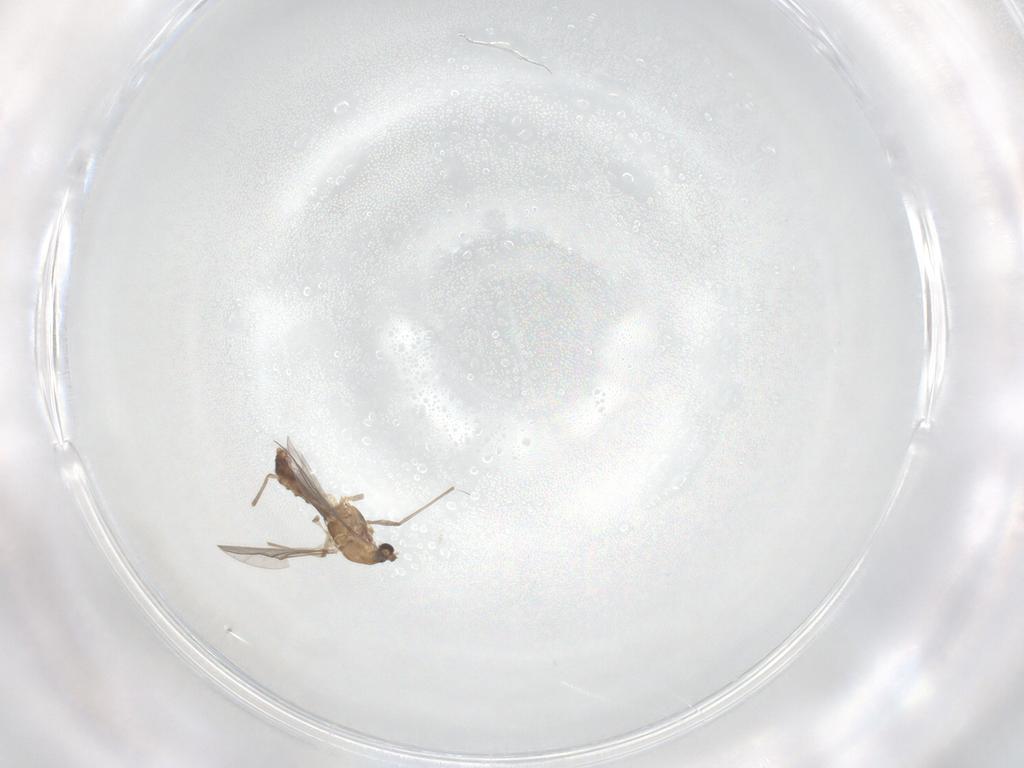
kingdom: Animalia
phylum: Arthropoda
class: Insecta
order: Diptera
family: Chironomidae
